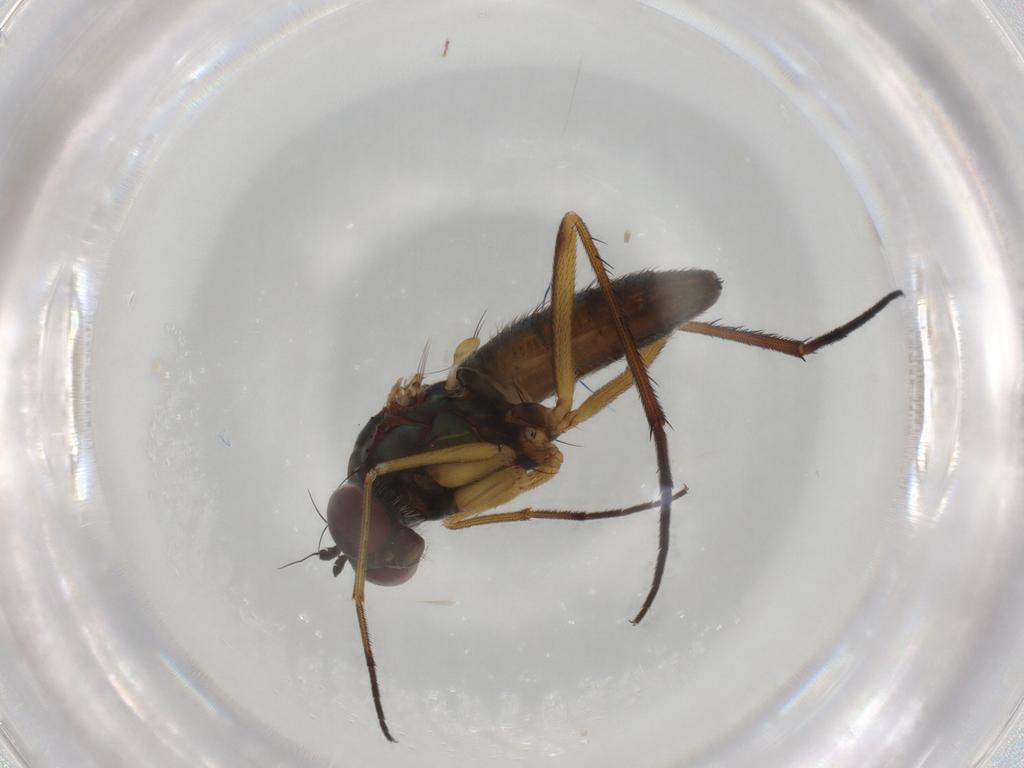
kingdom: Animalia
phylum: Arthropoda
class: Insecta
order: Diptera
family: Dolichopodidae
